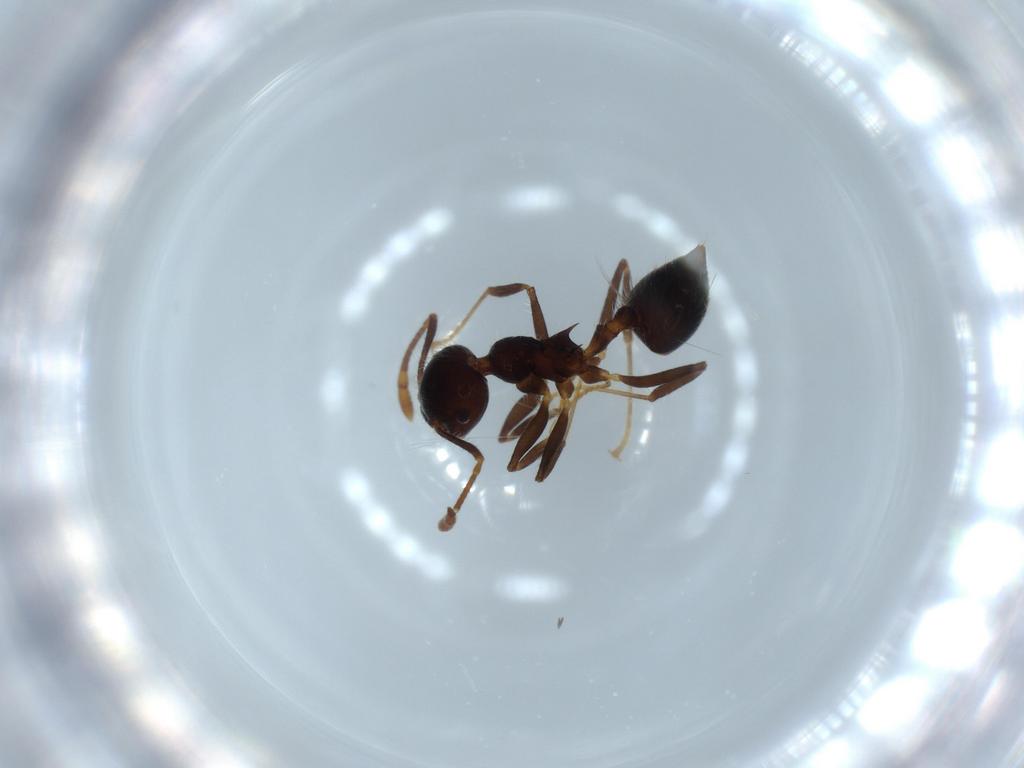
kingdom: Animalia
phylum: Arthropoda
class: Insecta
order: Hymenoptera
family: Formicidae
